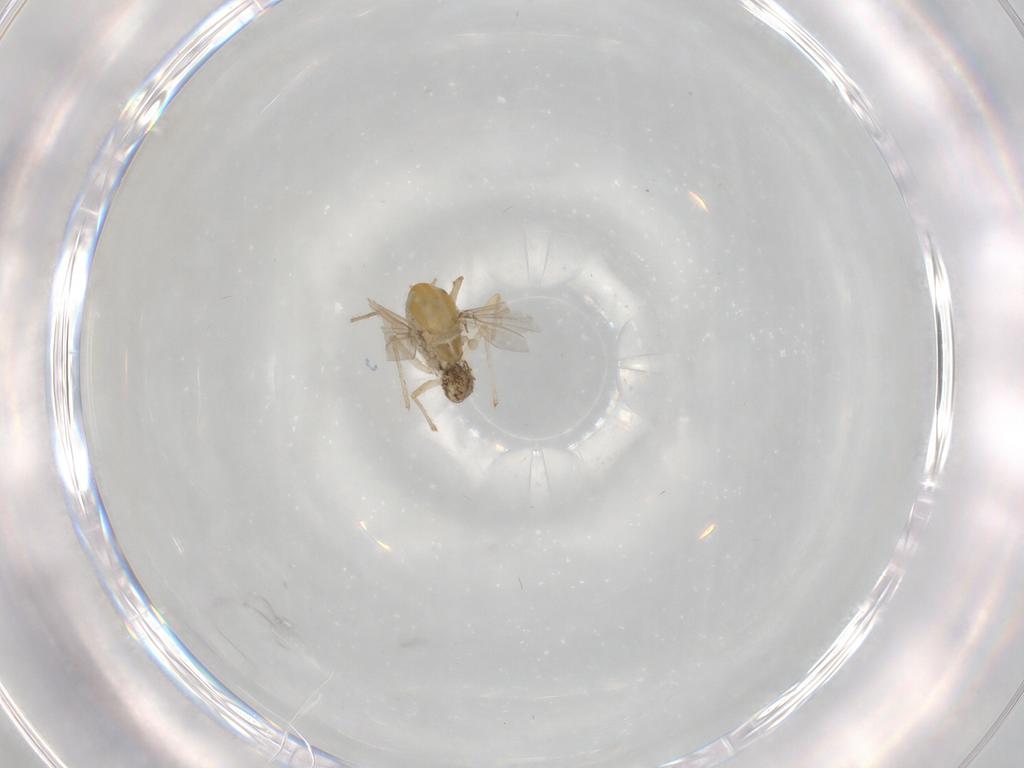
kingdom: Animalia
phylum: Arthropoda
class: Insecta
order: Diptera
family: Chironomidae
